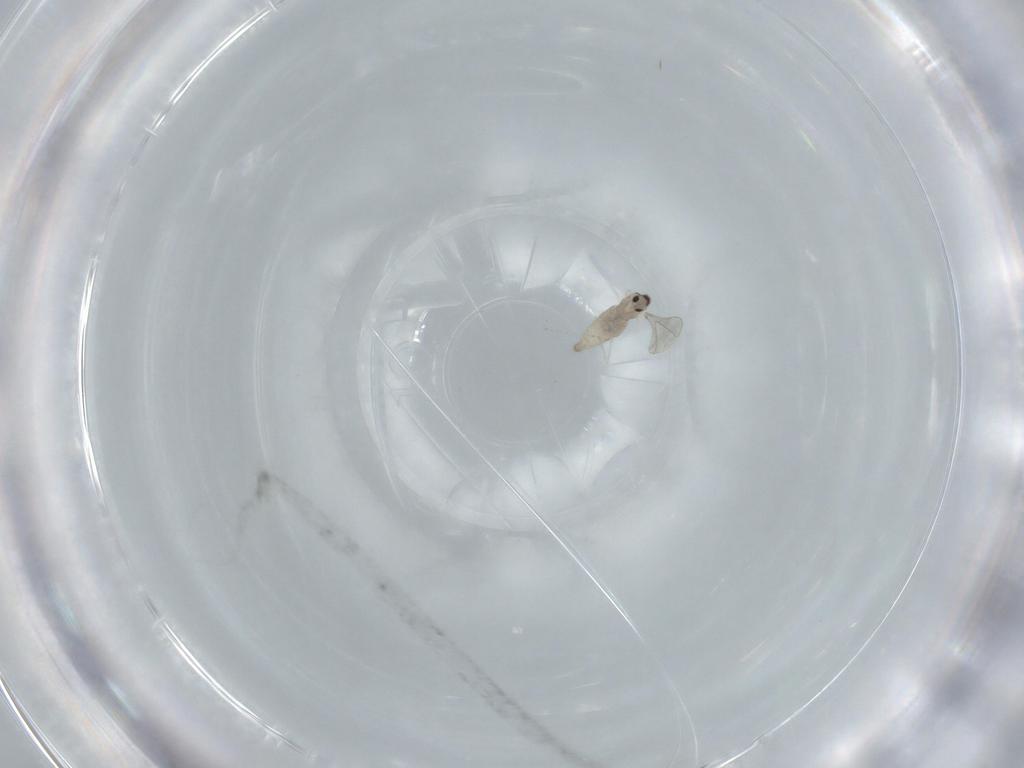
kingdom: Animalia
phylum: Arthropoda
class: Insecta
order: Diptera
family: Cecidomyiidae
